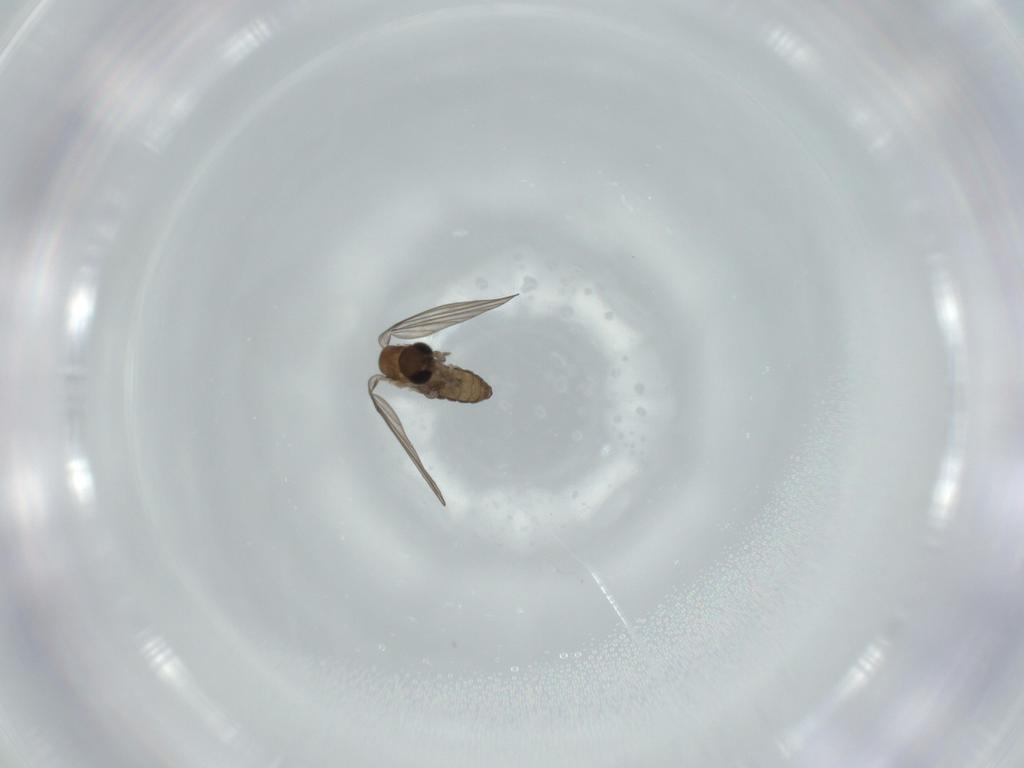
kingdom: Animalia
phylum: Arthropoda
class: Insecta
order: Diptera
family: Psychodidae
